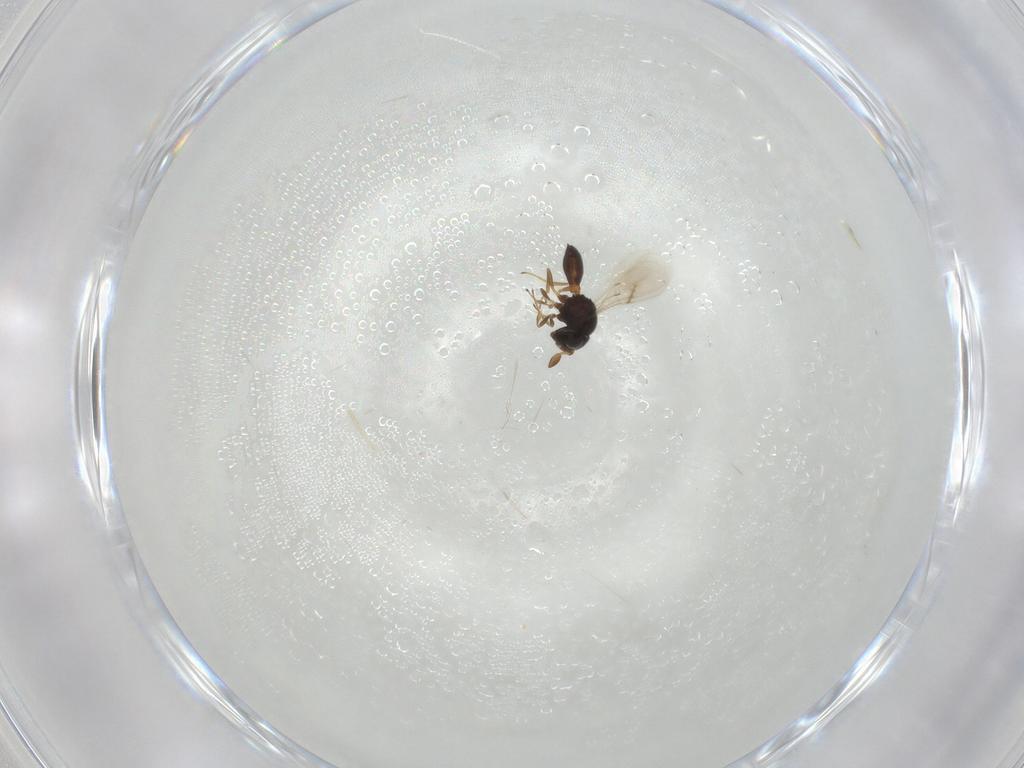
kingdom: Animalia
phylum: Arthropoda
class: Insecta
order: Hymenoptera
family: Scelionidae
